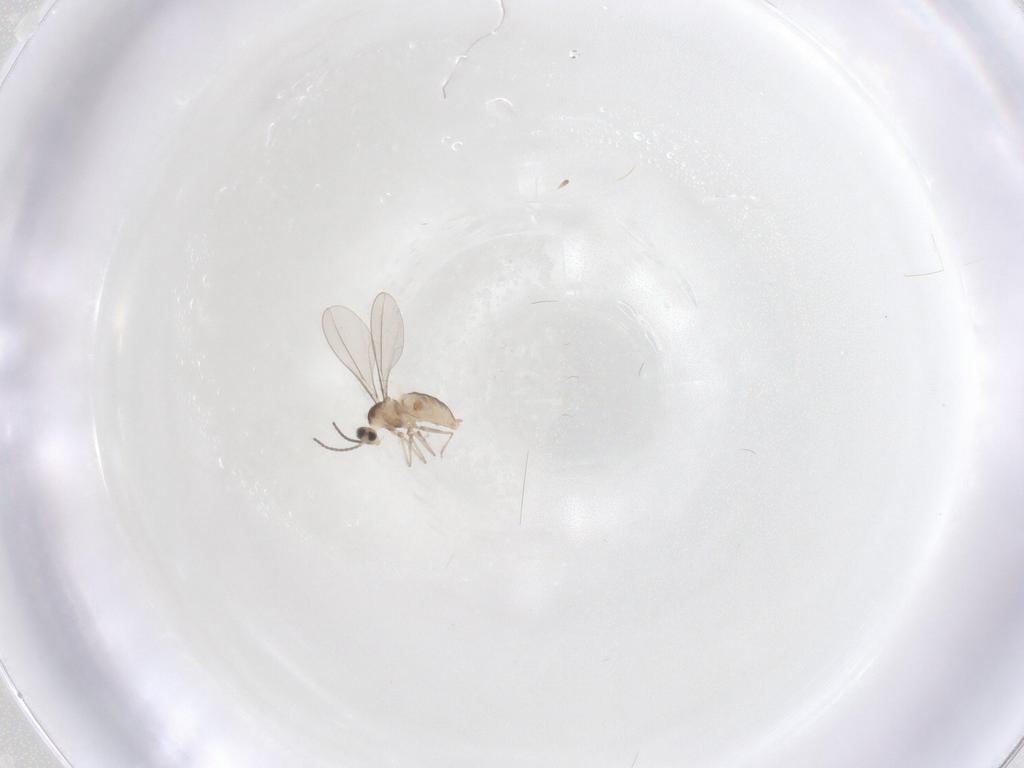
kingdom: Animalia
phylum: Arthropoda
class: Insecta
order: Diptera
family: Cecidomyiidae
